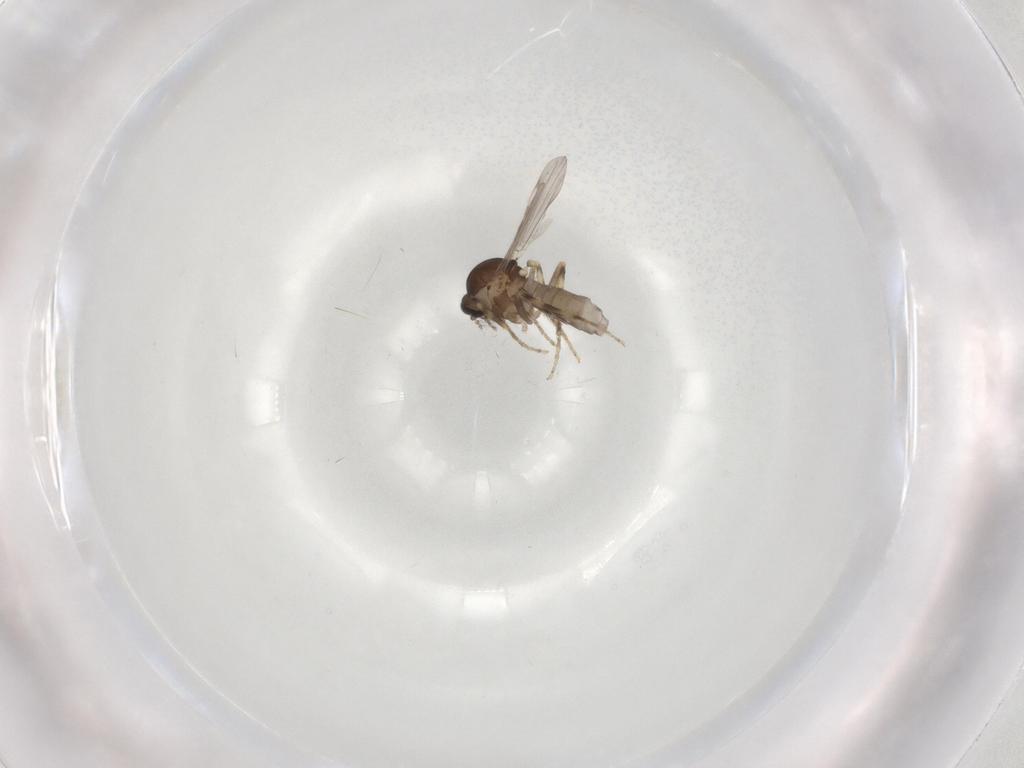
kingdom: Animalia
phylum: Arthropoda
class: Insecta
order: Diptera
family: Ceratopogonidae
